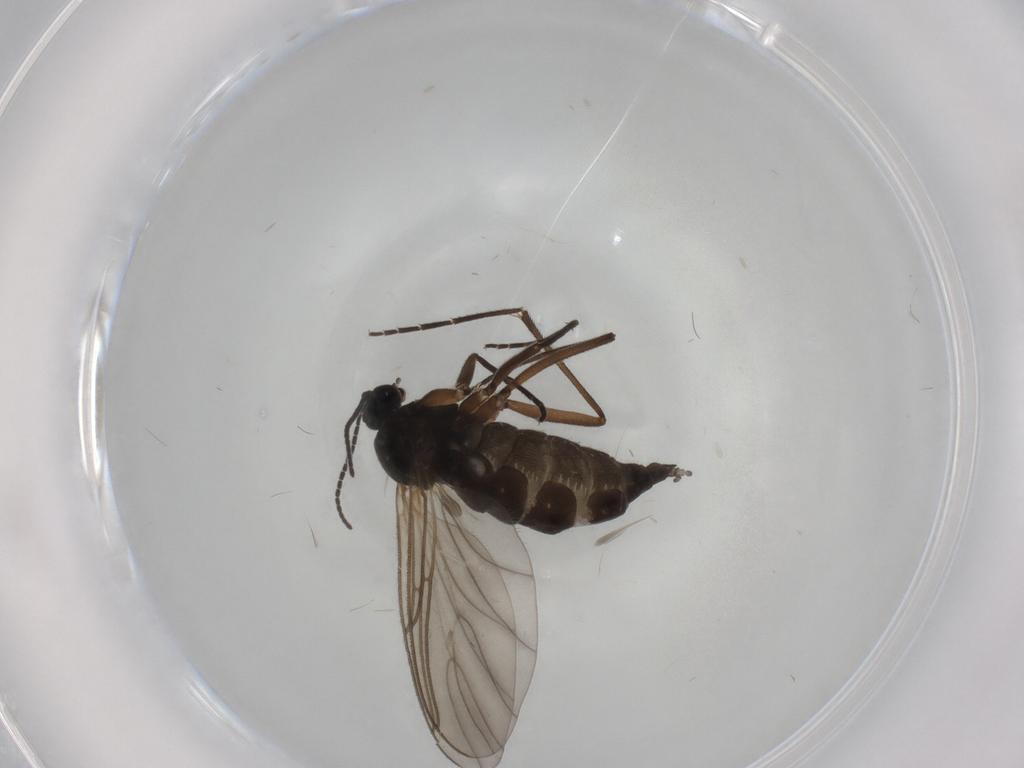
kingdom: Animalia
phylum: Arthropoda
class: Insecta
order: Diptera
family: Sciaridae
